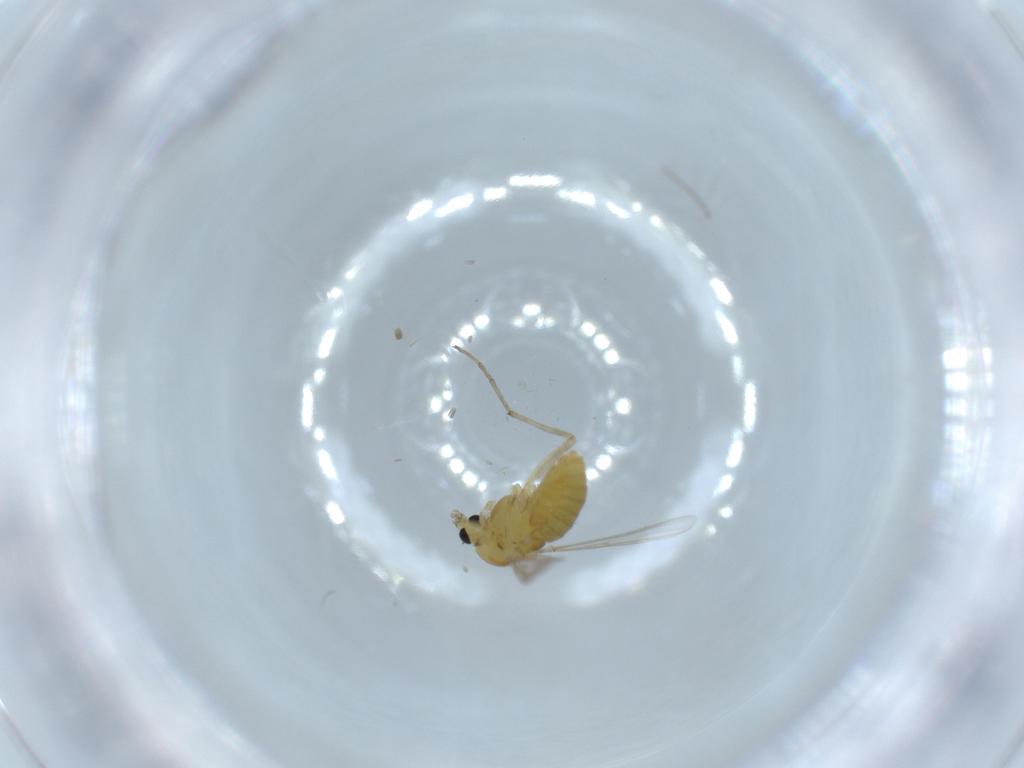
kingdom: Animalia
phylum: Arthropoda
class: Insecta
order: Diptera
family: Chironomidae
